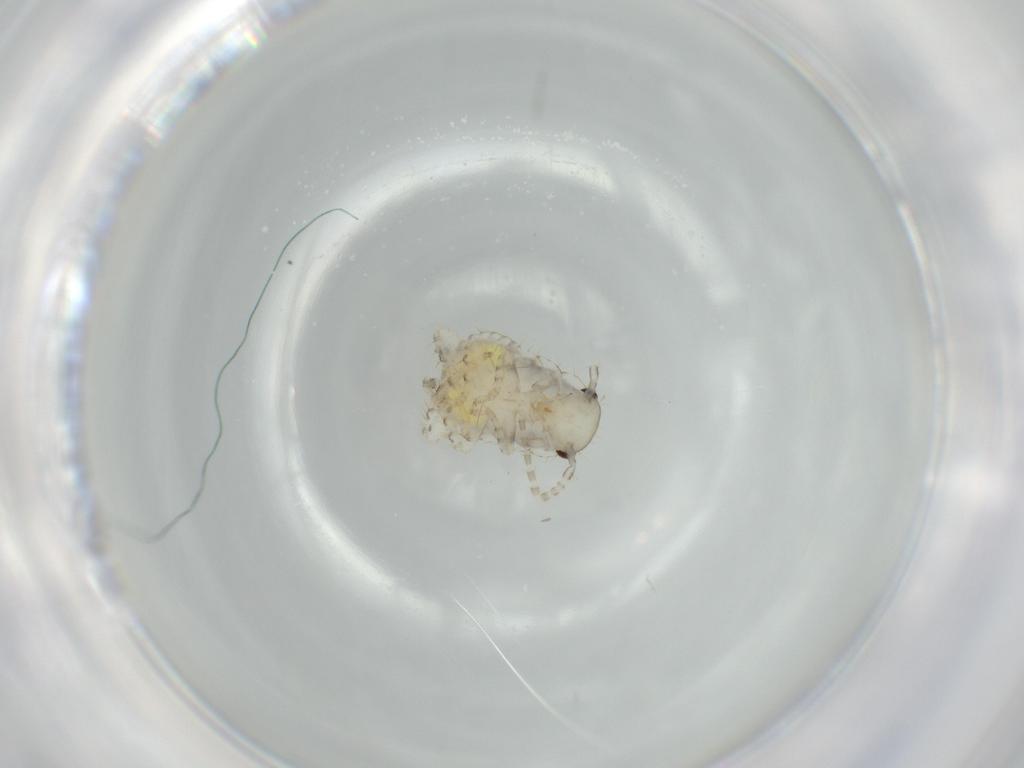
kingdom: Animalia
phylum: Arthropoda
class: Insecta
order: Blattodea
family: Ectobiidae
